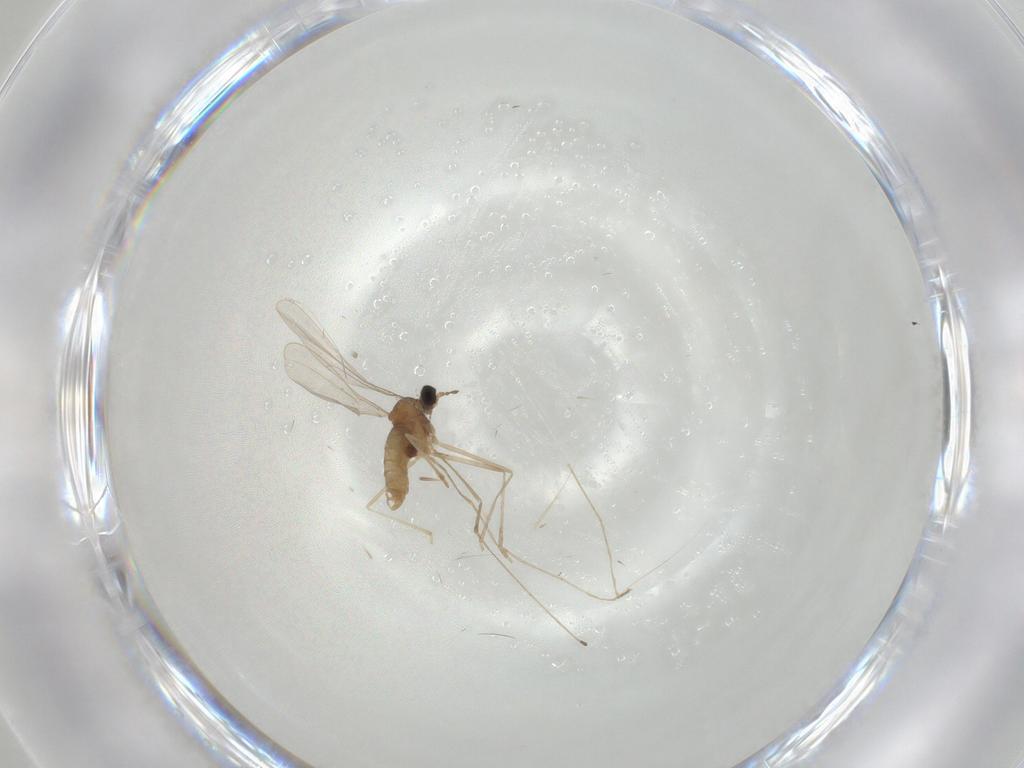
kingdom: Animalia
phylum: Arthropoda
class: Insecta
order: Diptera
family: Cecidomyiidae
